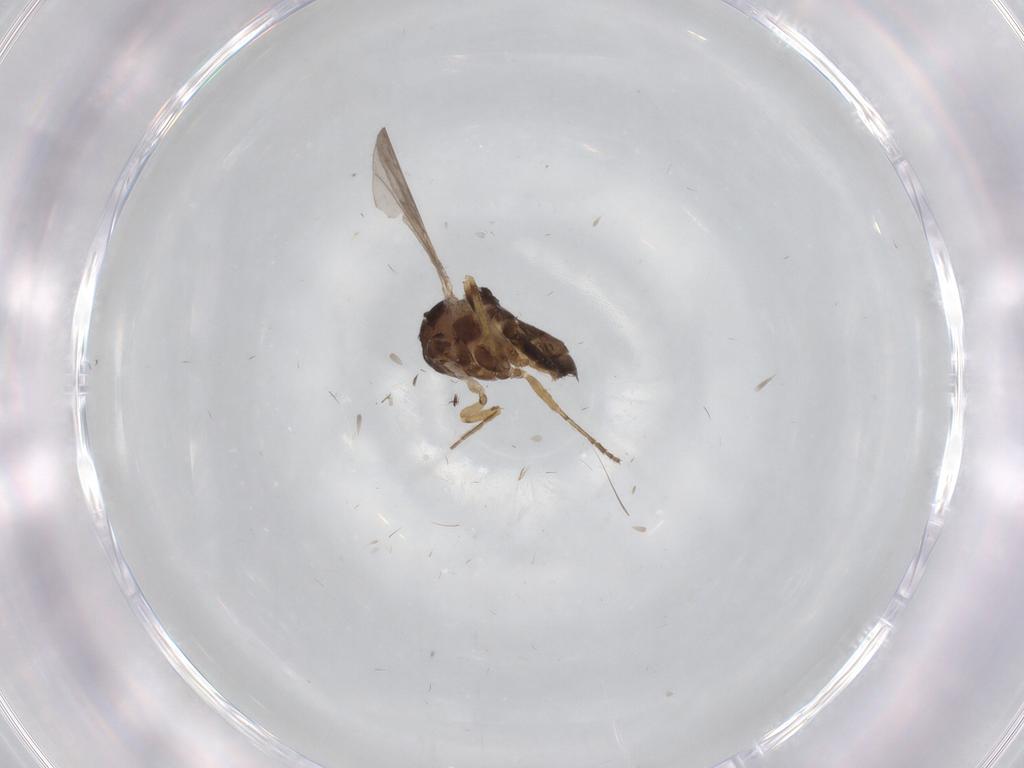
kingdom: Animalia
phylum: Arthropoda
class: Insecta
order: Diptera
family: Ceratopogonidae
